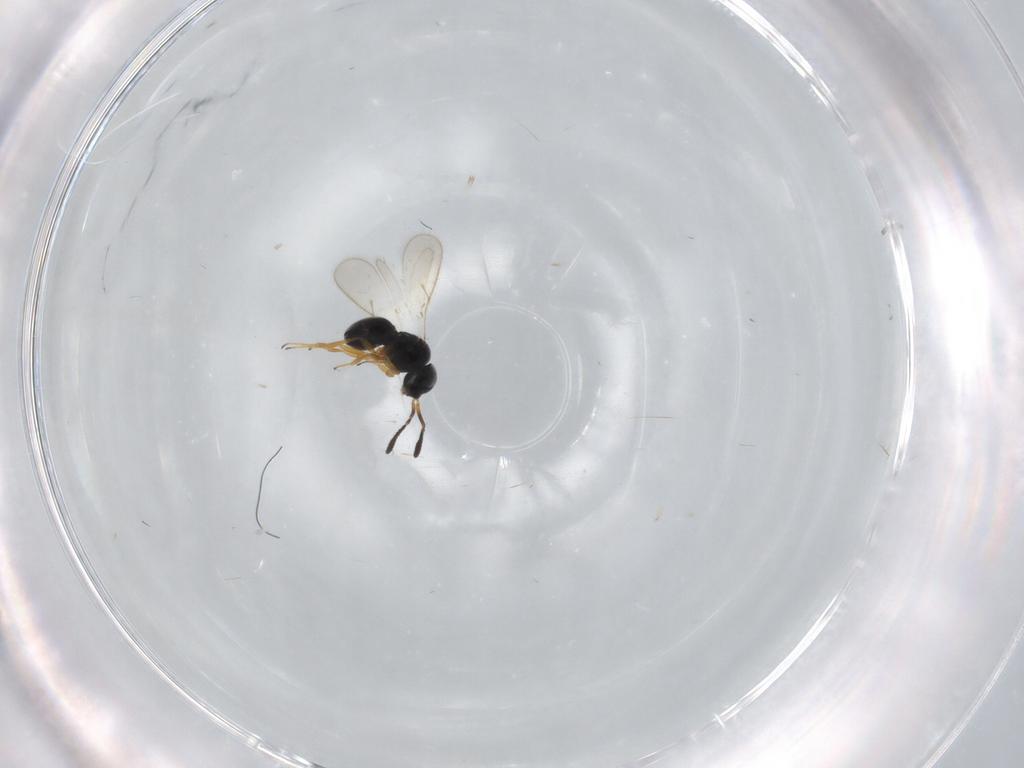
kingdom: Animalia
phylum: Arthropoda
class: Insecta
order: Hymenoptera
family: Scelionidae
